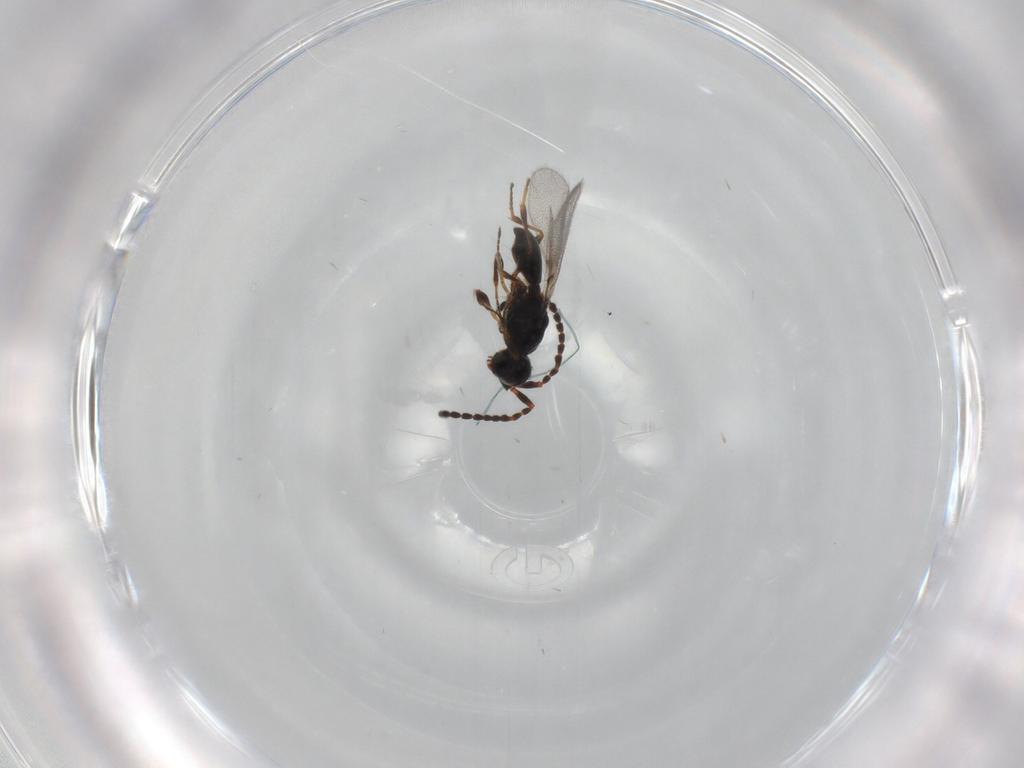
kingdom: Animalia
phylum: Arthropoda
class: Insecta
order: Hymenoptera
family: Diapriidae
